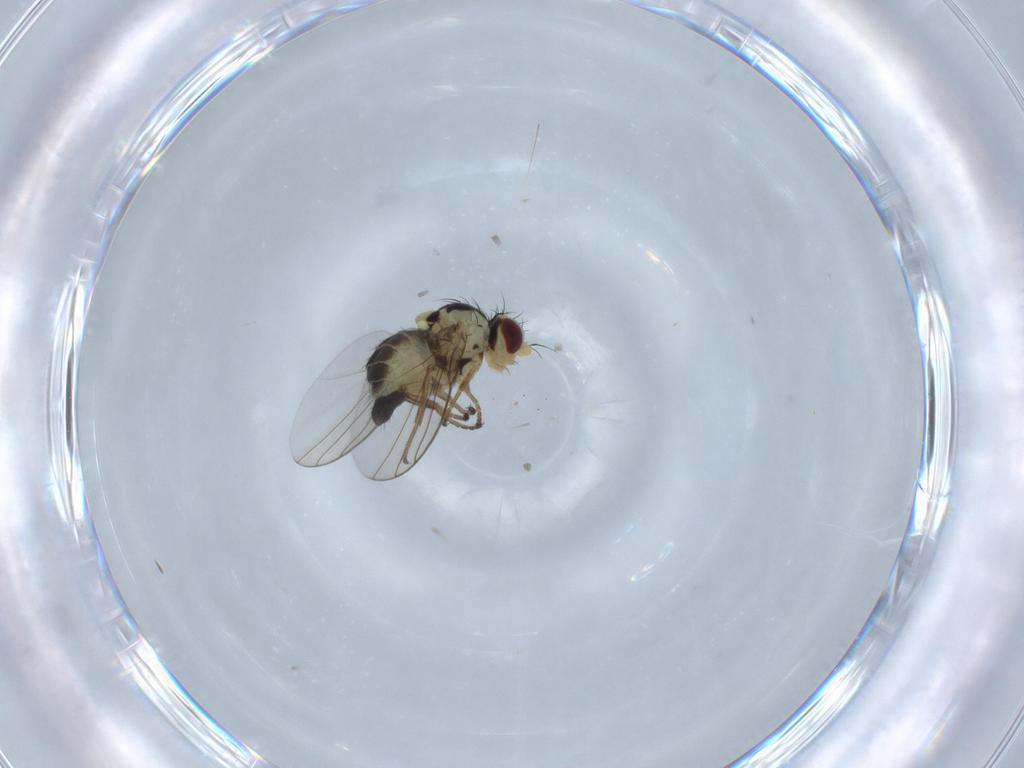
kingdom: Animalia
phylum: Arthropoda
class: Insecta
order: Diptera
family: Agromyzidae
